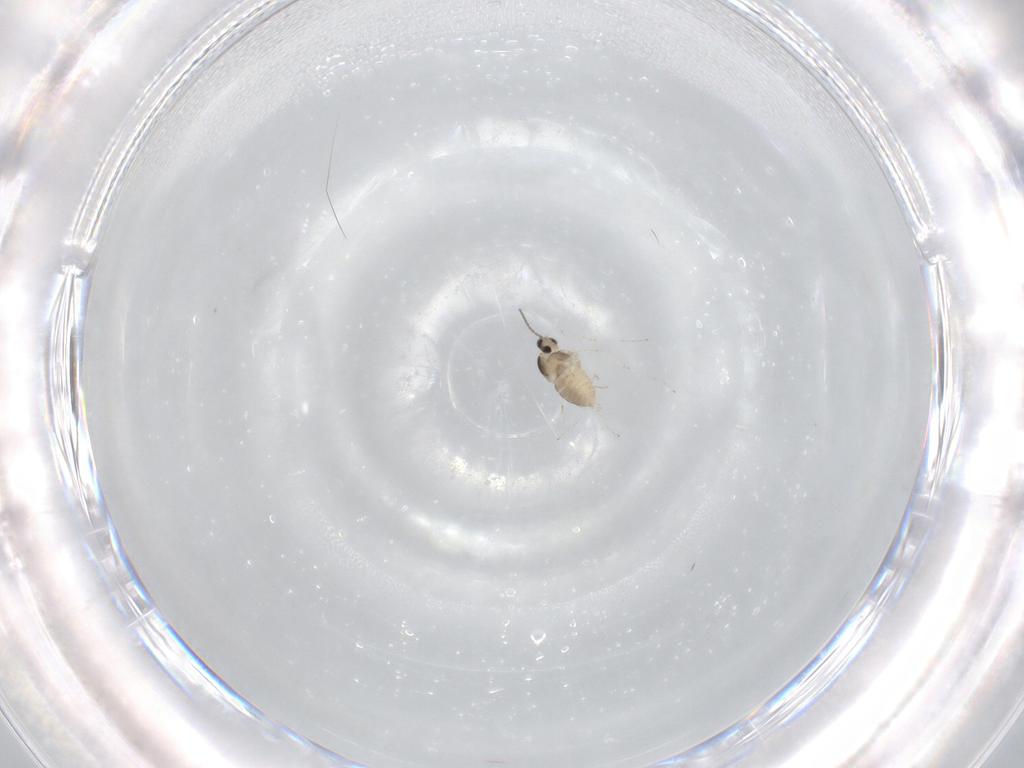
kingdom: Animalia
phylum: Arthropoda
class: Insecta
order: Diptera
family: Cecidomyiidae
